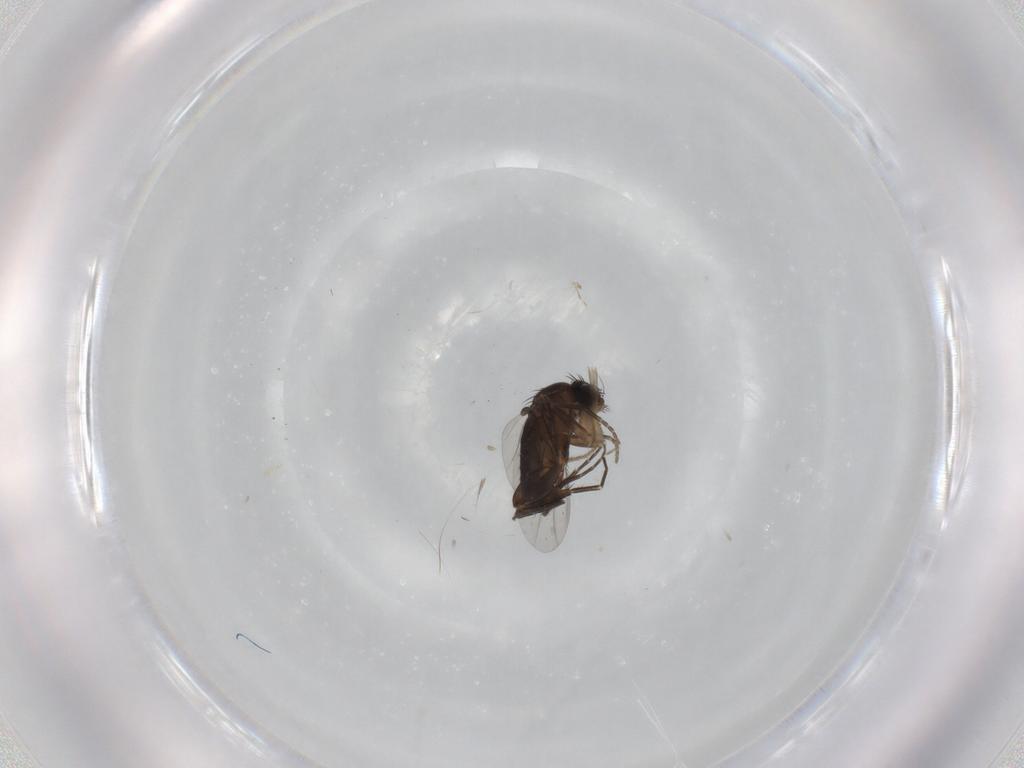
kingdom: Animalia
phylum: Arthropoda
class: Insecta
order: Diptera
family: Phoridae
